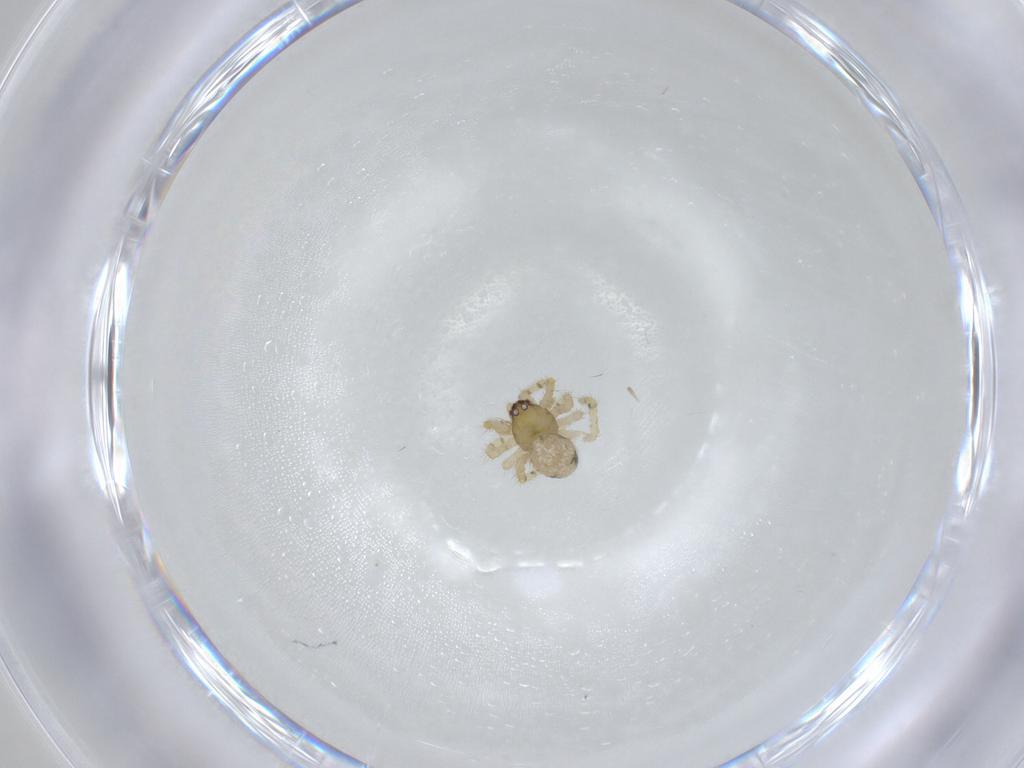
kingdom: Animalia
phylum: Arthropoda
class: Arachnida
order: Araneae
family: Theridiidae
